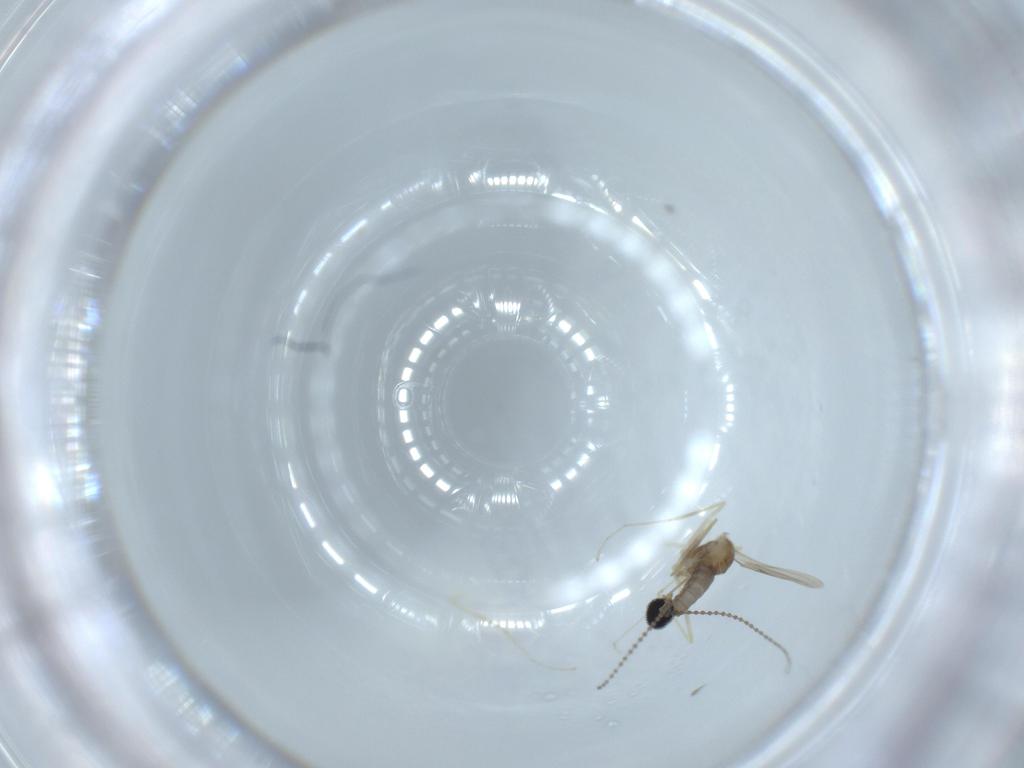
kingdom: Animalia
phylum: Arthropoda
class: Insecta
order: Diptera
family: Cecidomyiidae
